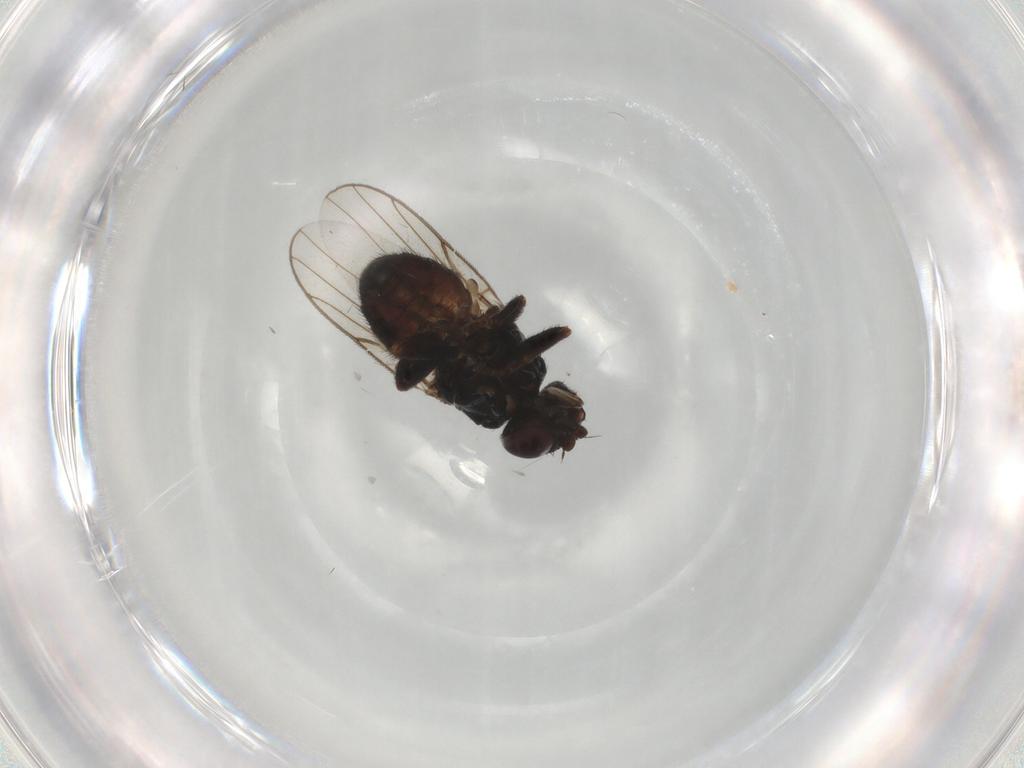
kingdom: Animalia
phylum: Arthropoda
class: Insecta
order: Diptera
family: Chloropidae
